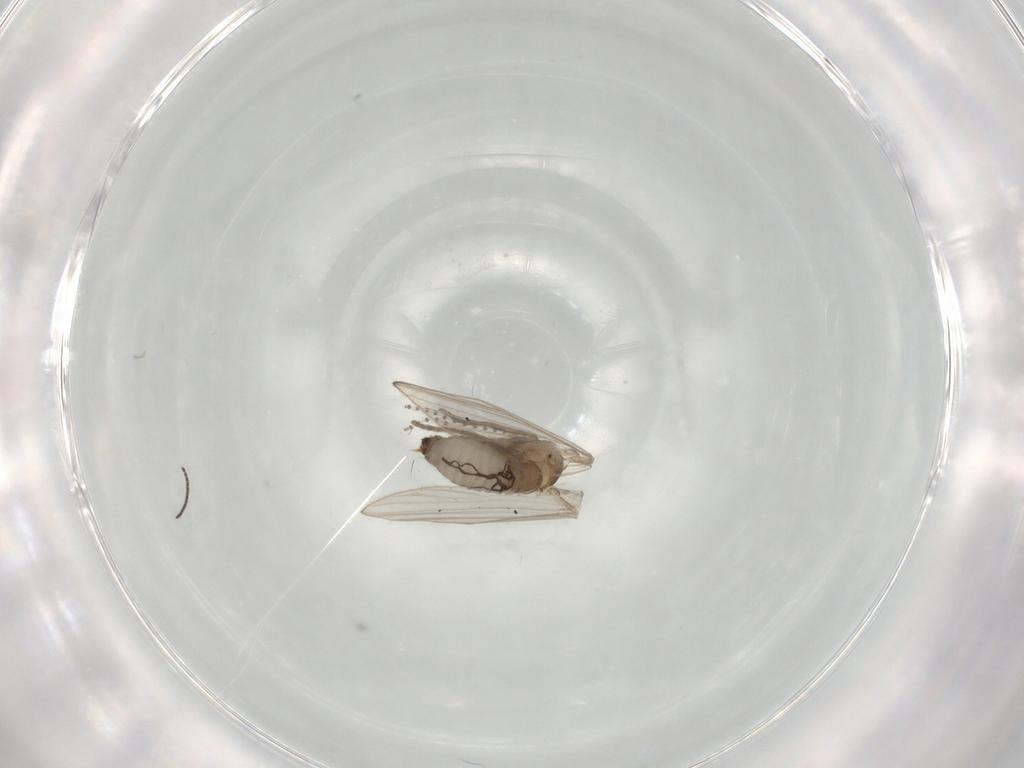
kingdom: Animalia
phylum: Arthropoda
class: Insecta
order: Diptera
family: Psychodidae
